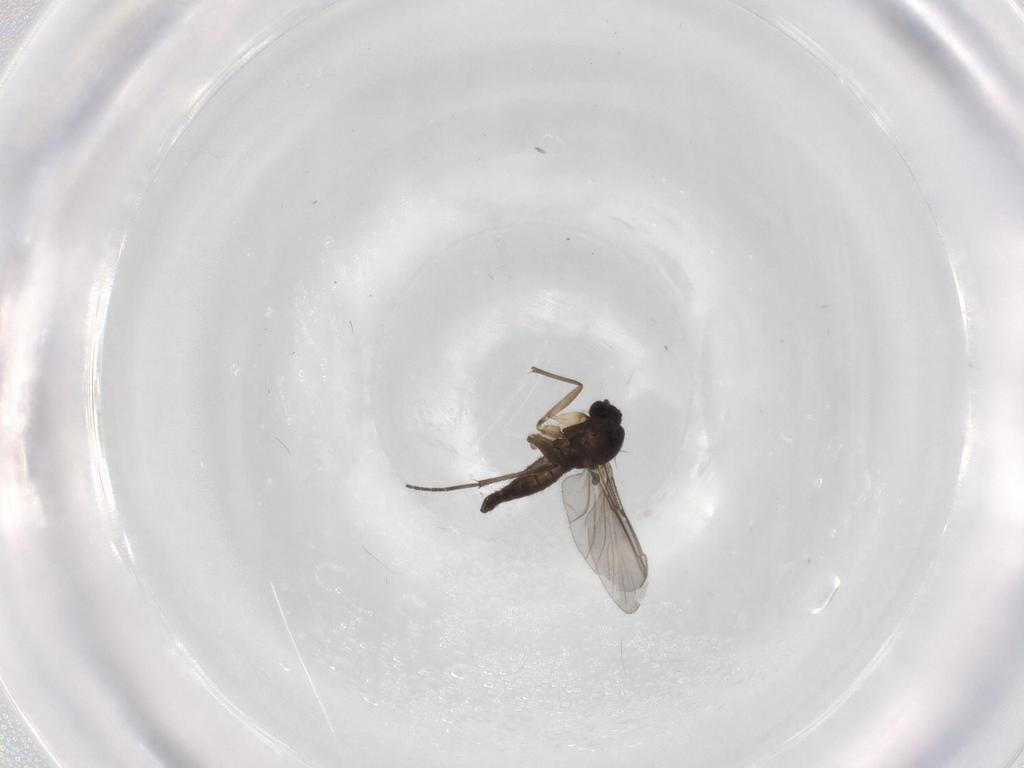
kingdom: Animalia
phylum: Arthropoda
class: Insecta
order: Diptera
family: Sciaridae
